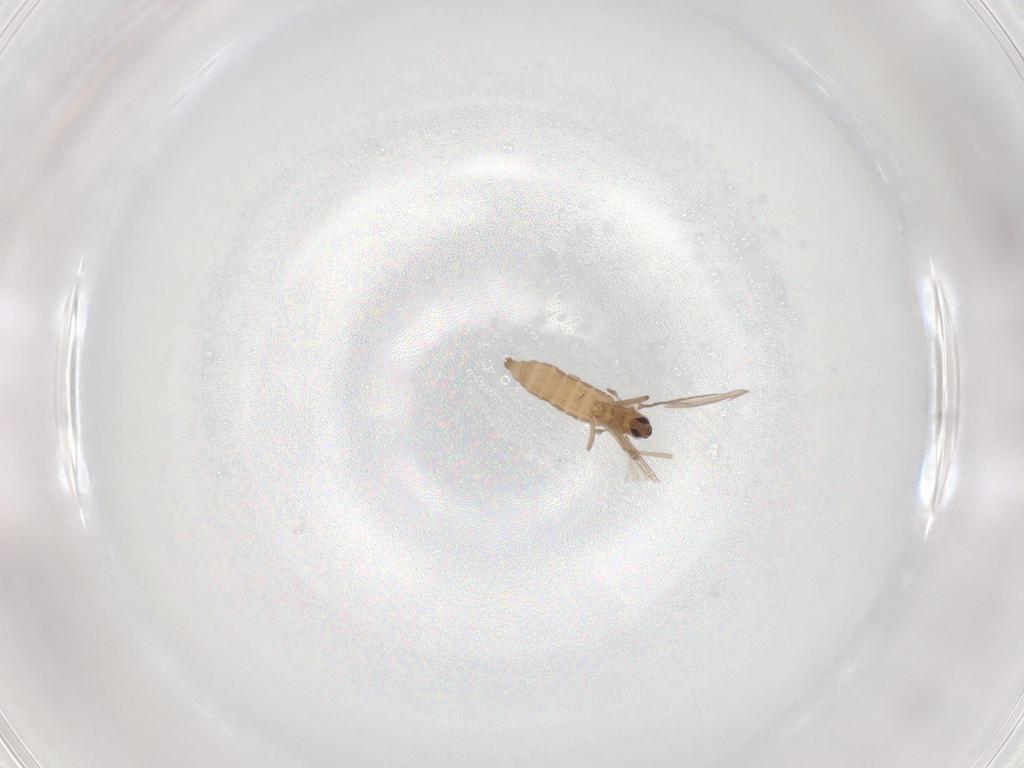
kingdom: Animalia
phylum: Arthropoda
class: Insecta
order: Diptera
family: Cecidomyiidae
